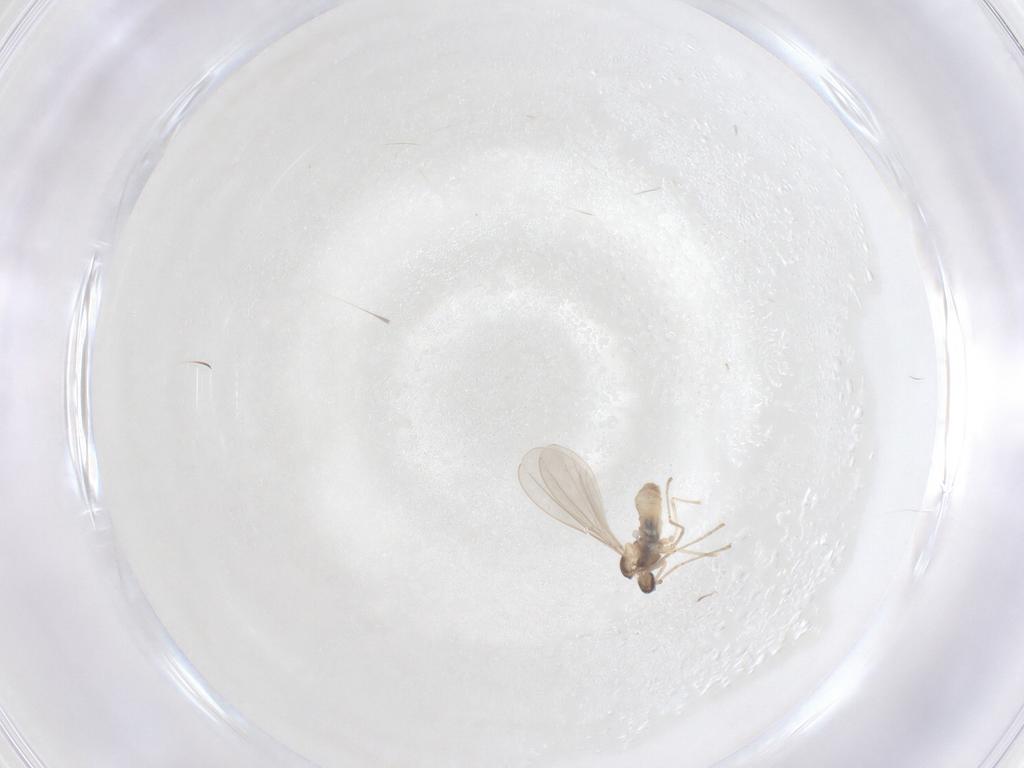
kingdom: Animalia
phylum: Arthropoda
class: Insecta
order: Diptera
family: Cecidomyiidae
